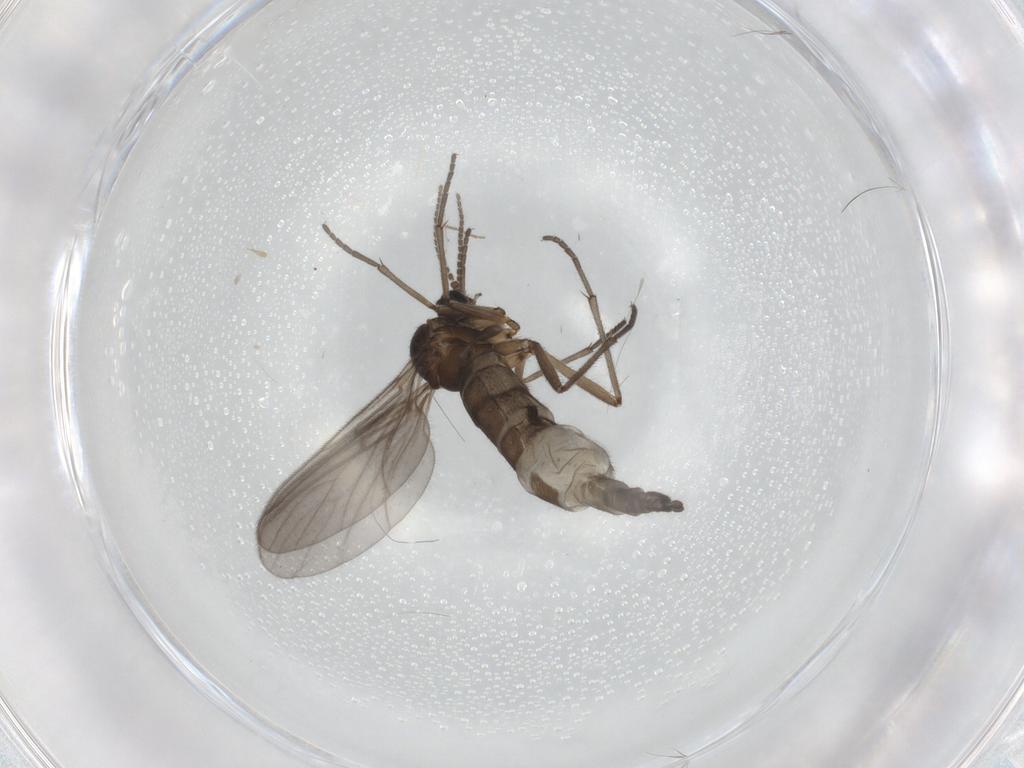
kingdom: Animalia
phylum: Arthropoda
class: Insecta
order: Diptera
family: Sciaridae
